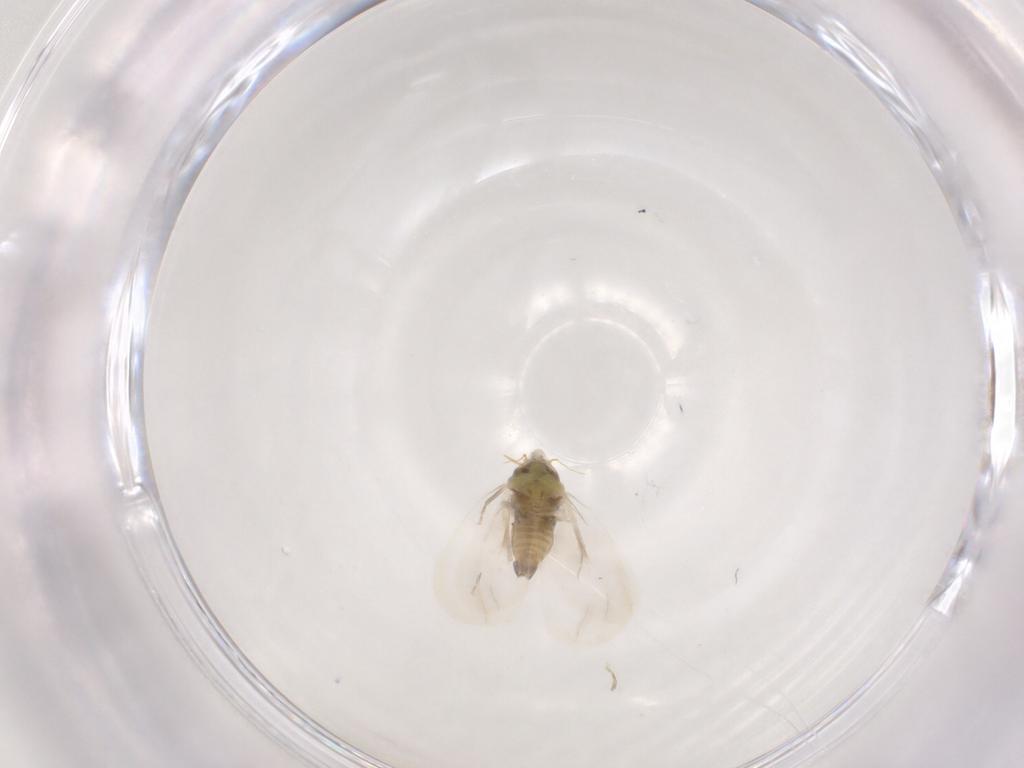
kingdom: Animalia
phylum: Arthropoda
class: Insecta
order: Hemiptera
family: Aleyrodidae
